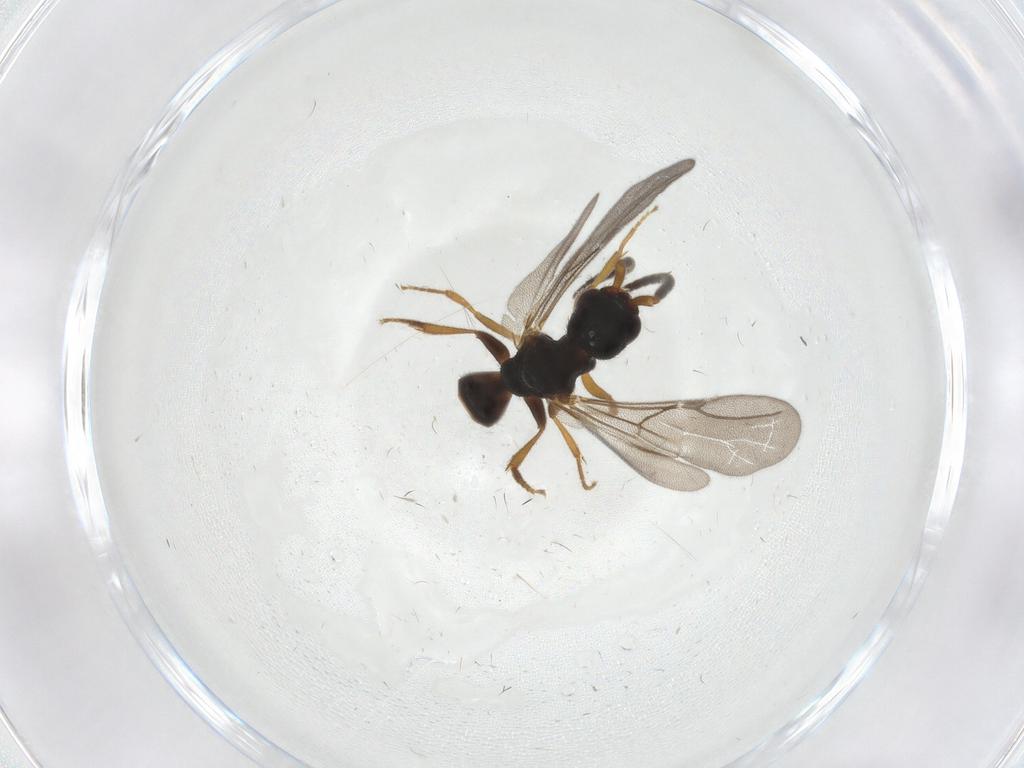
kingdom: Animalia
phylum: Arthropoda
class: Insecta
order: Hymenoptera
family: Bethylidae
